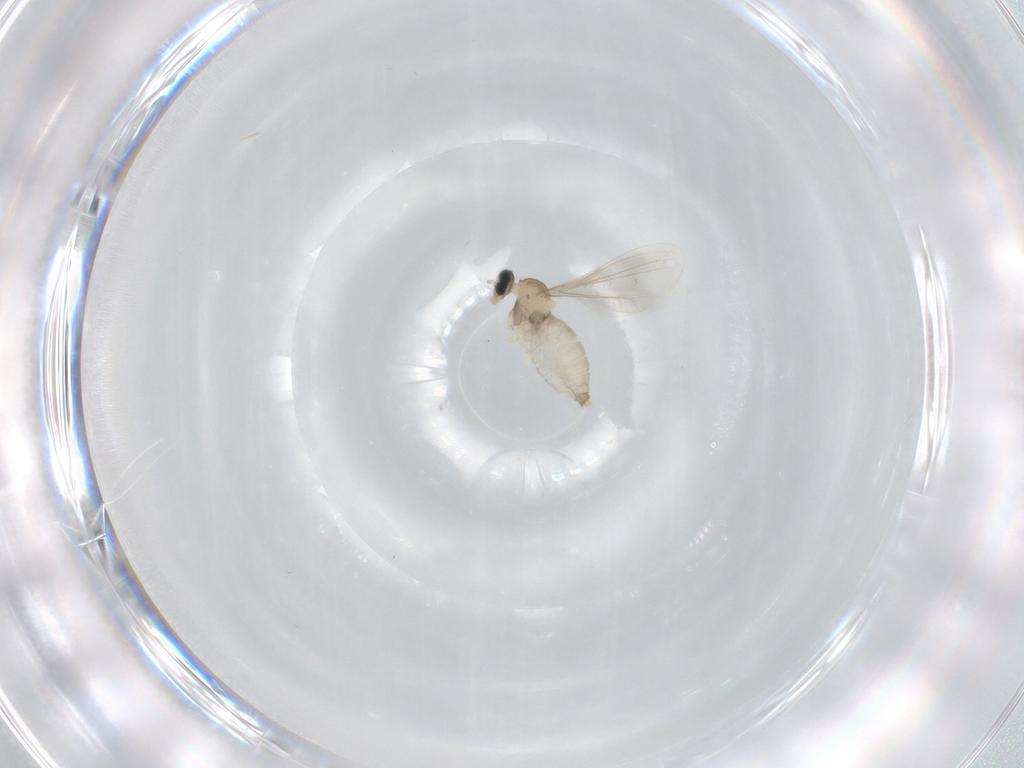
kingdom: Animalia
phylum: Arthropoda
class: Insecta
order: Diptera
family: Cecidomyiidae
